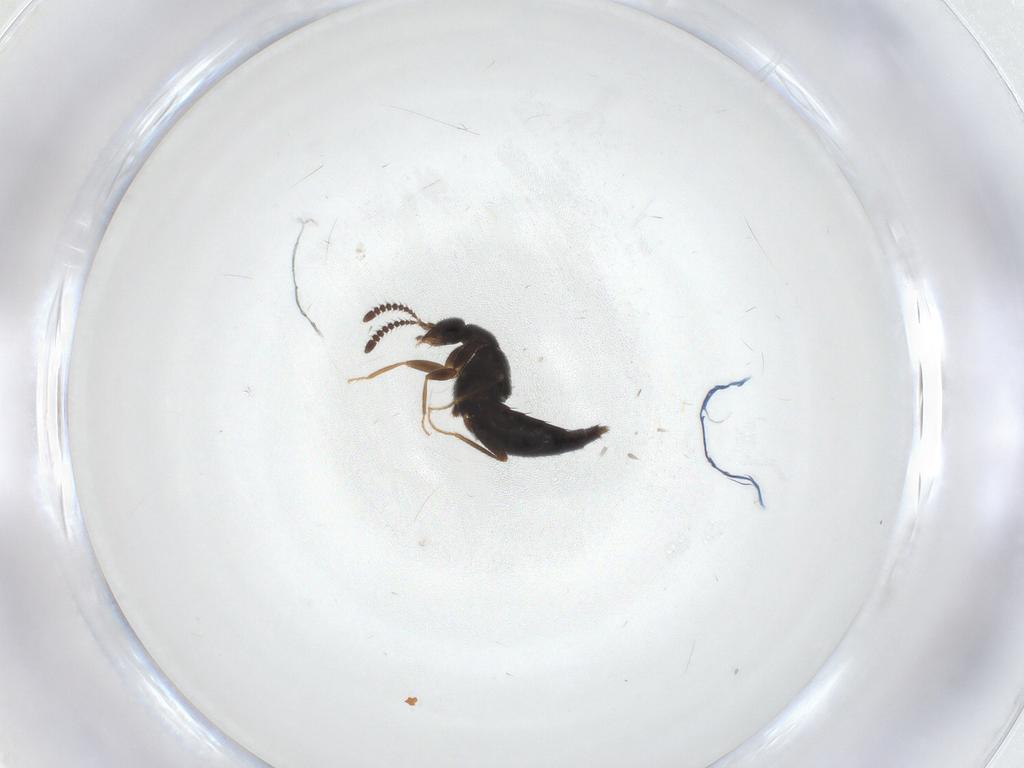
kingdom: Animalia
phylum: Arthropoda
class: Insecta
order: Coleoptera
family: Staphylinidae
